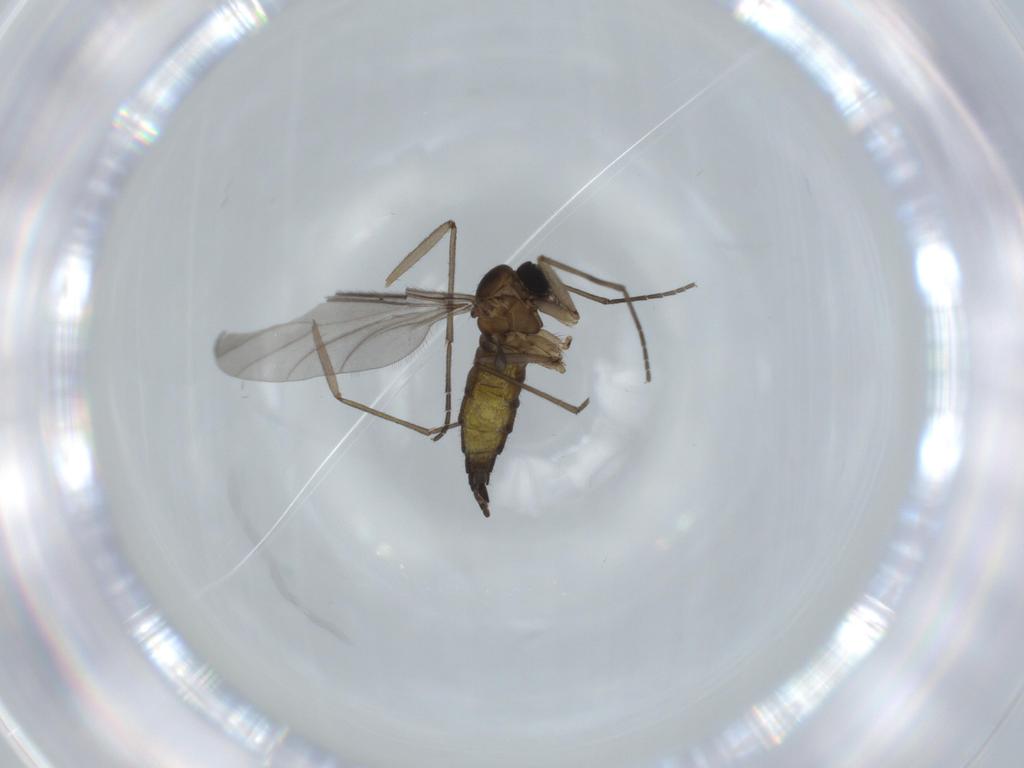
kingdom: Animalia
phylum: Arthropoda
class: Insecta
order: Diptera
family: Sciaridae
